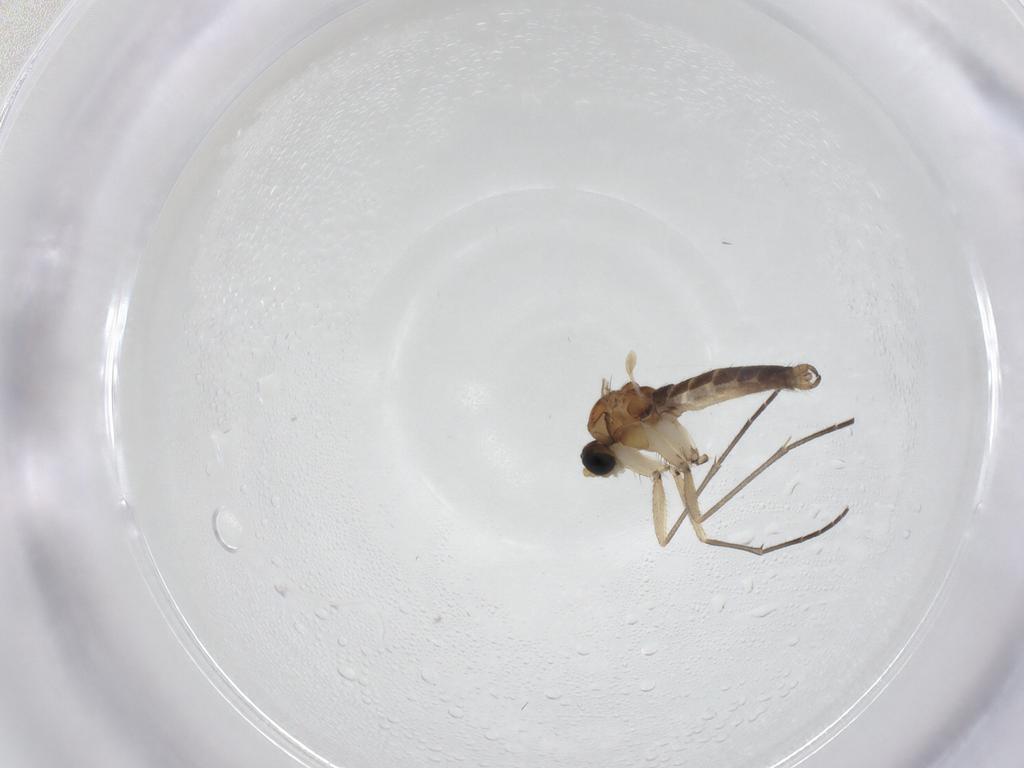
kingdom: Animalia
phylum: Arthropoda
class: Insecta
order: Diptera
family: Sciaridae
